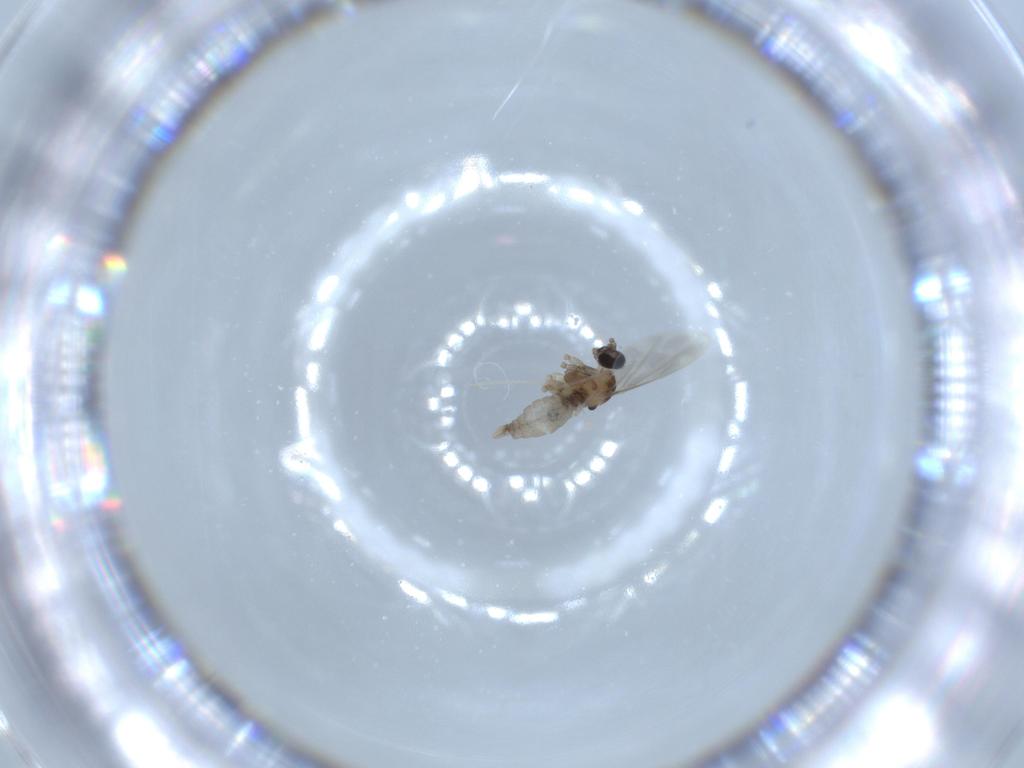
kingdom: Animalia
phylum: Arthropoda
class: Insecta
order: Diptera
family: Cecidomyiidae
